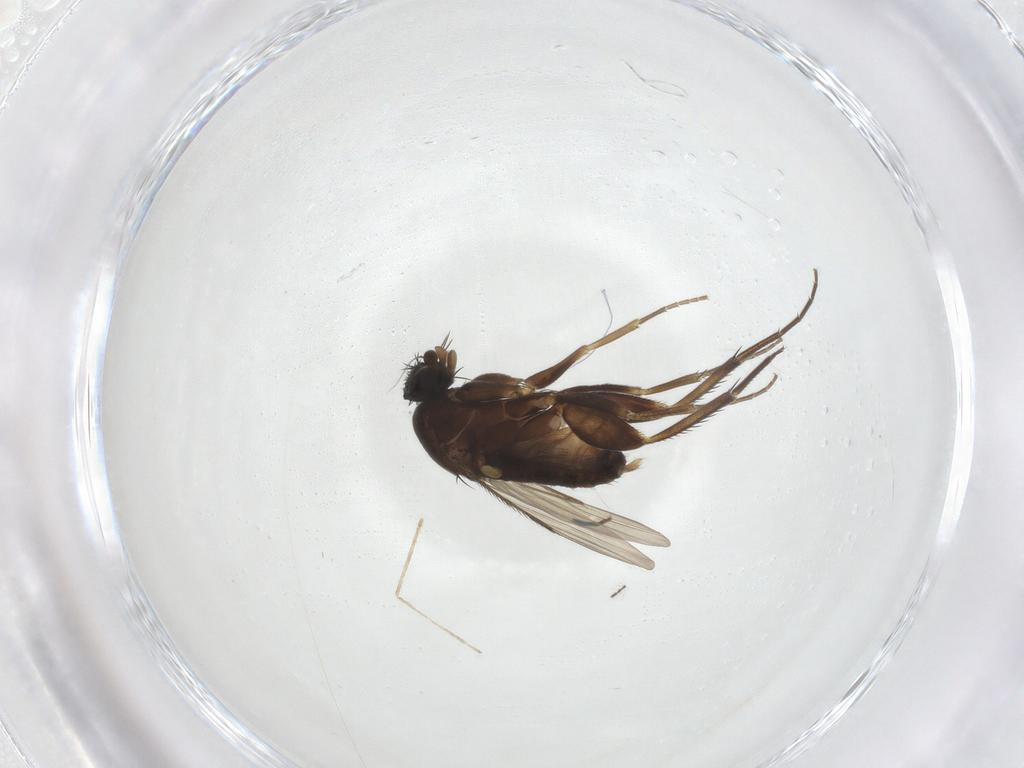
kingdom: Animalia
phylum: Arthropoda
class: Insecta
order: Diptera
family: Phoridae
